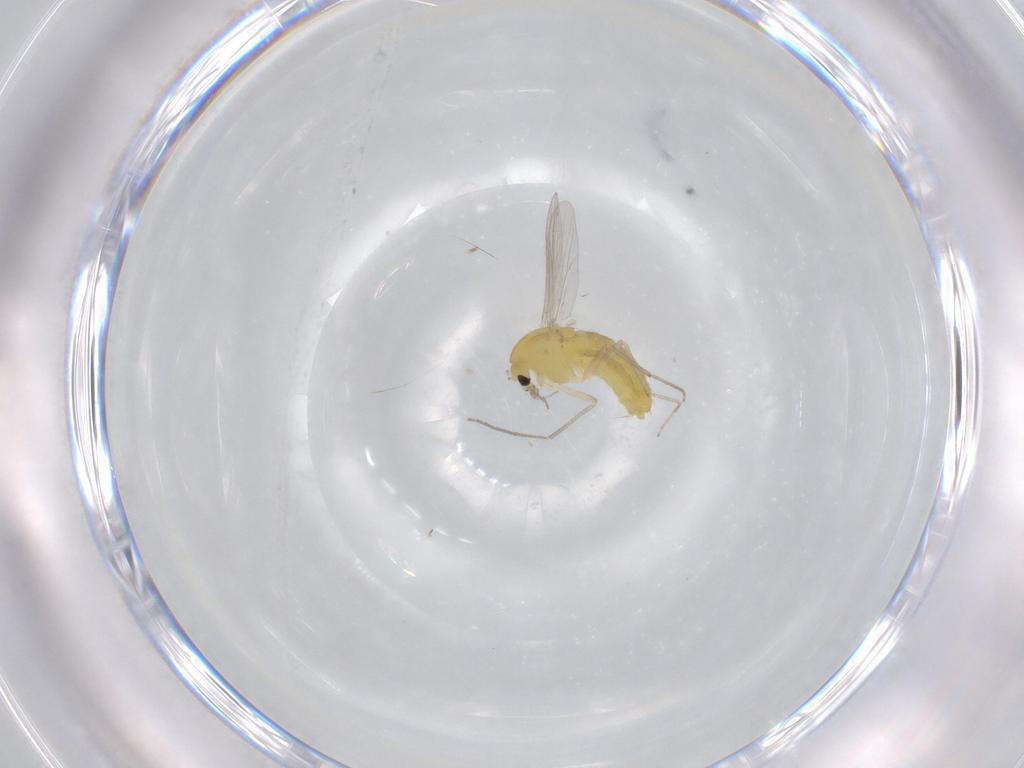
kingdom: Animalia
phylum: Arthropoda
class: Insecta
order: Diptera
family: Chironomidae
